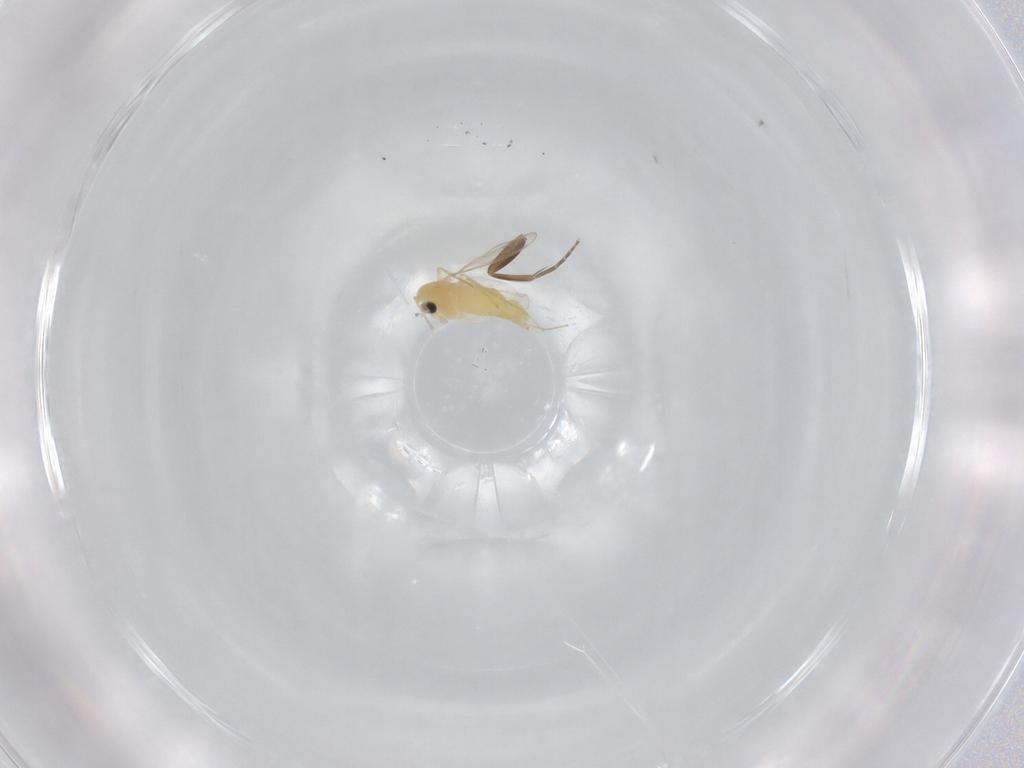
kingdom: Animalia
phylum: Arthropoda
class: Insecta
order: Diptera
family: Chironomidae
